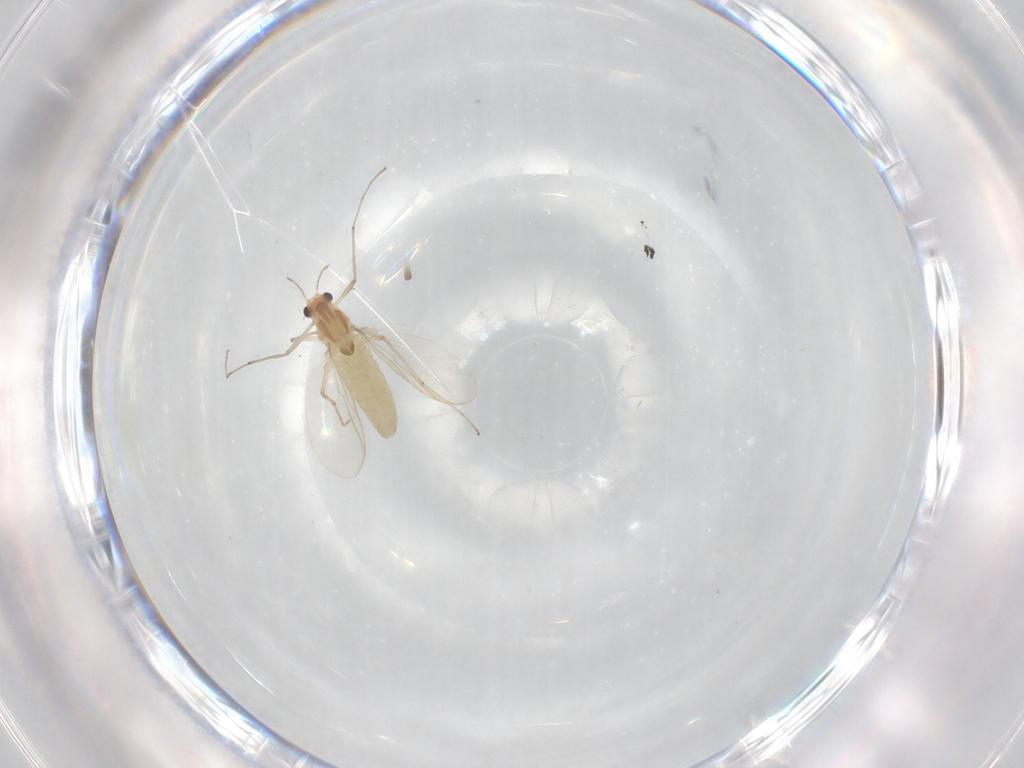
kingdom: Animalia
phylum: Arthropoda
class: Insecta
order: Diptera
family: Chironomidae
